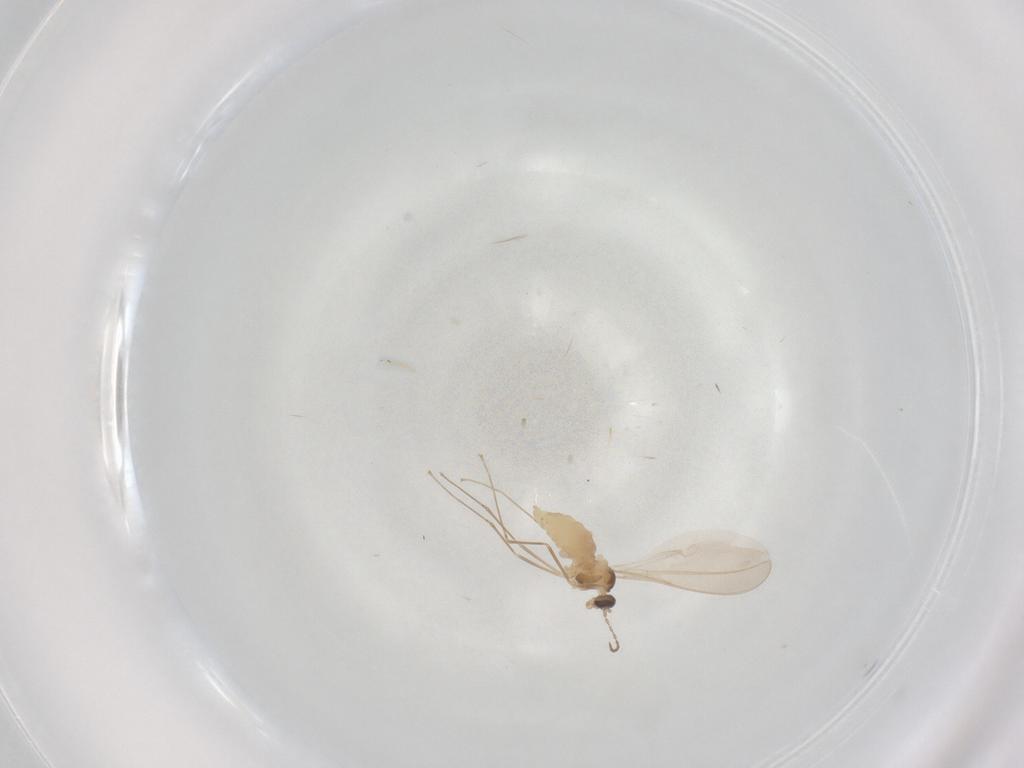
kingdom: Animalia
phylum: Arthropoda
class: Insecta
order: Diptera
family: Cecidomyiidae
